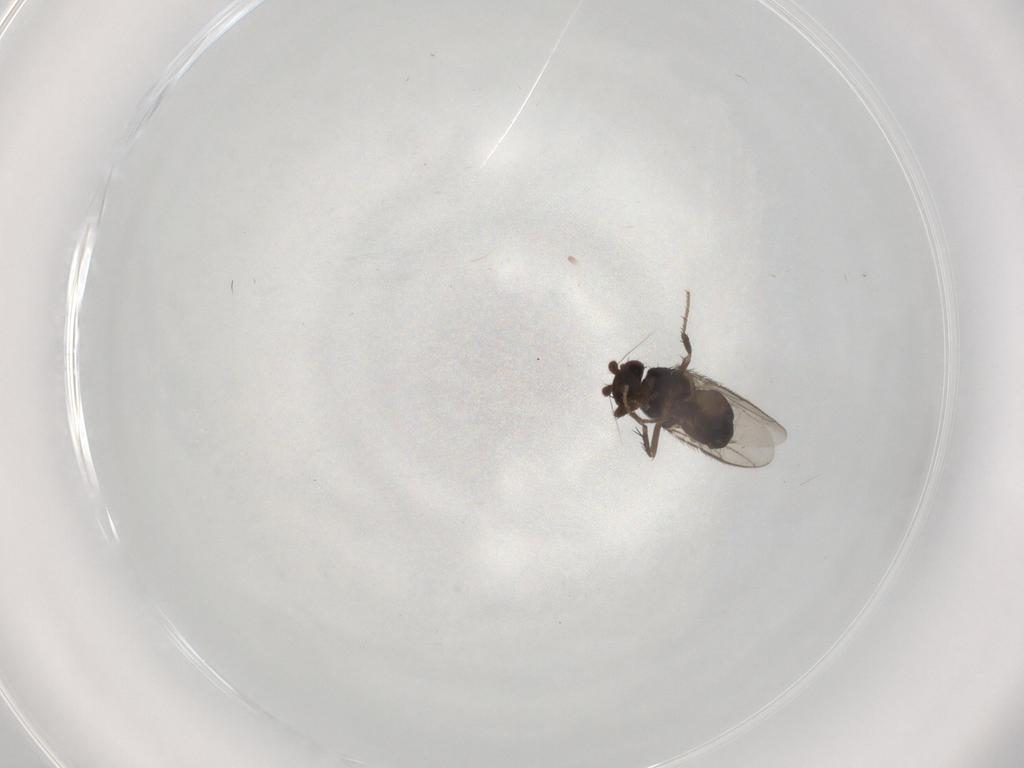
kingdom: Animalia
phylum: Arthropoda
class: Insecta
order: Diptera
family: Sphaeroceridae
